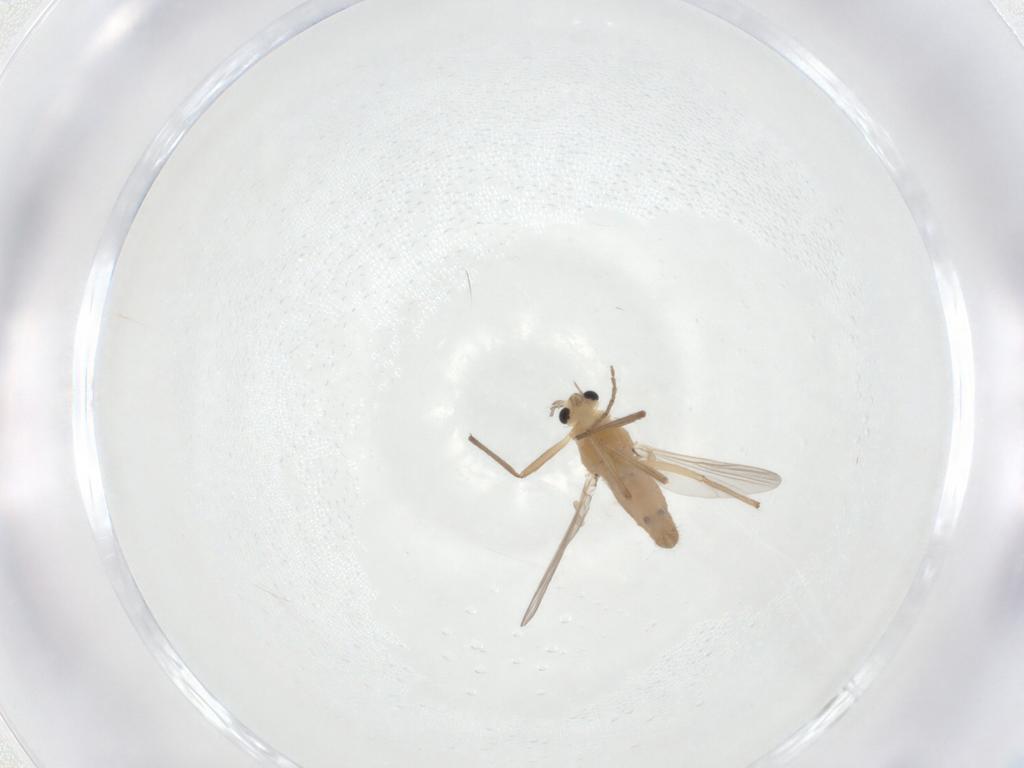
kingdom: Animalia
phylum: Arthropoda
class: Insecta
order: Diptera
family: Chironomidae
